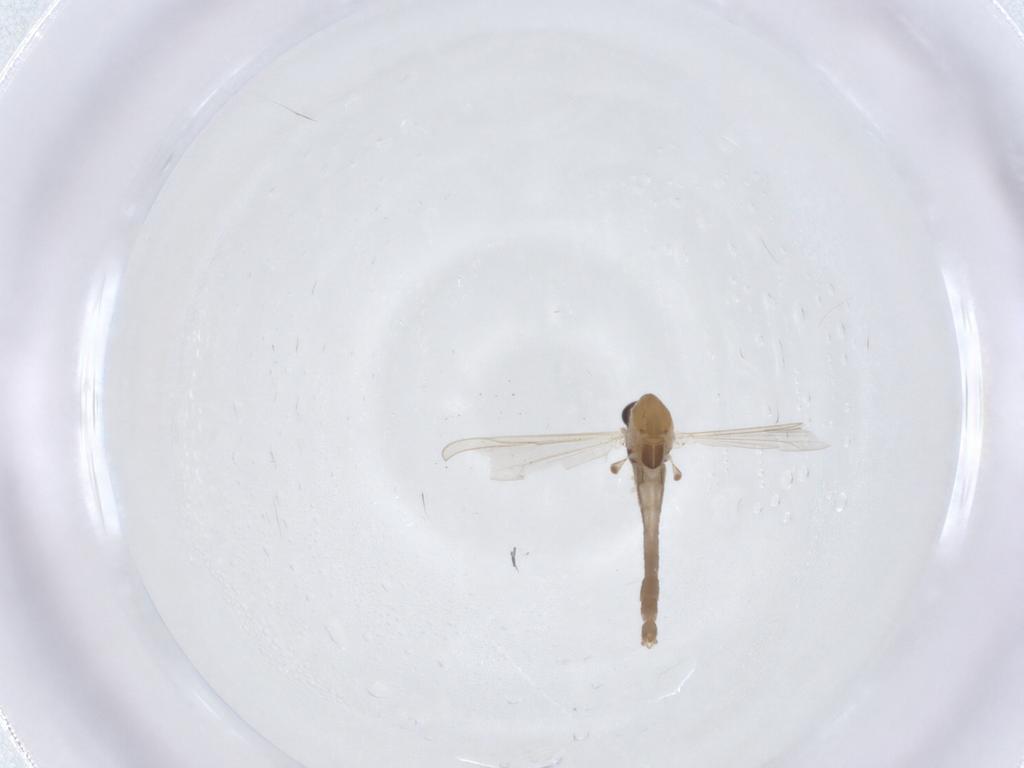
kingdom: Animalia
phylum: Arthropoda
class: Insecta
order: Diptera
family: Chironomidae
